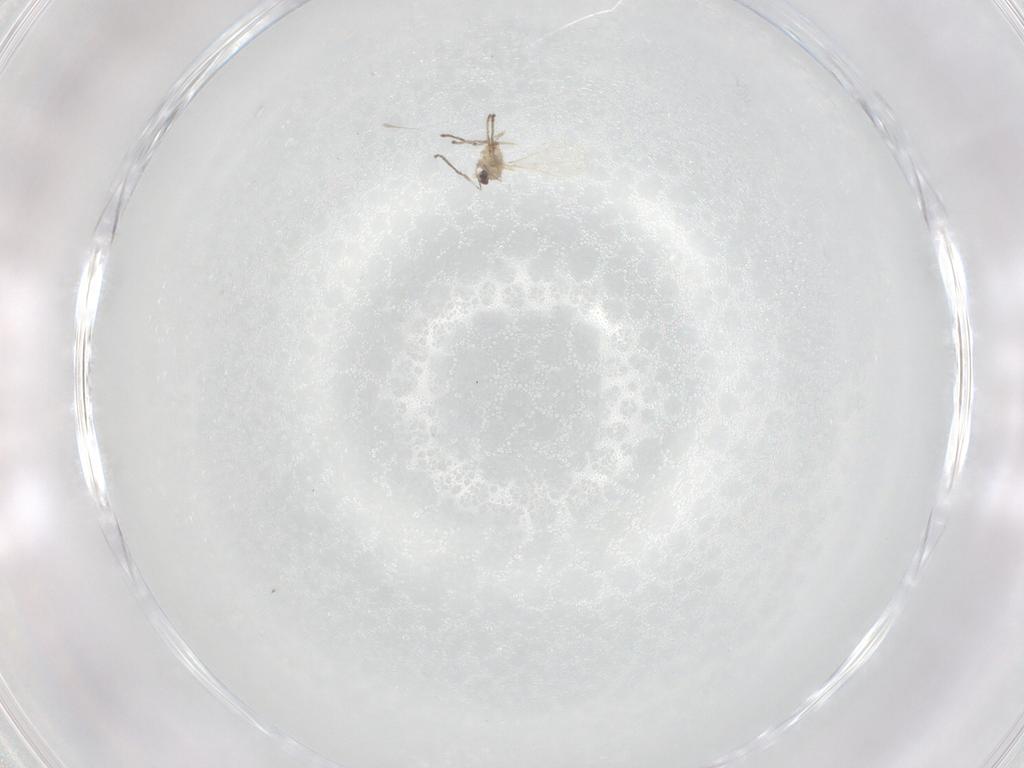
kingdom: Animalia
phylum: Arthropoda
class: Insecta
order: Diptera
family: Cecidomyiidae
